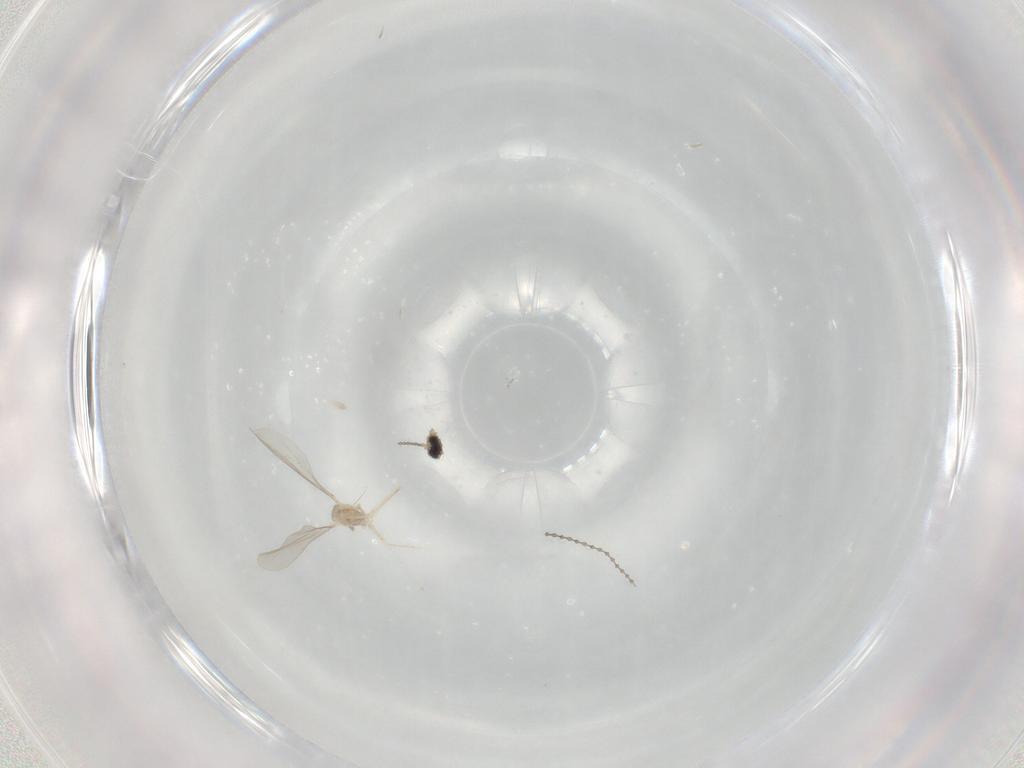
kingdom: Animalia
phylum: Arthropoda
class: Insecta
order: Diptera
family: Cecidomyiidae
